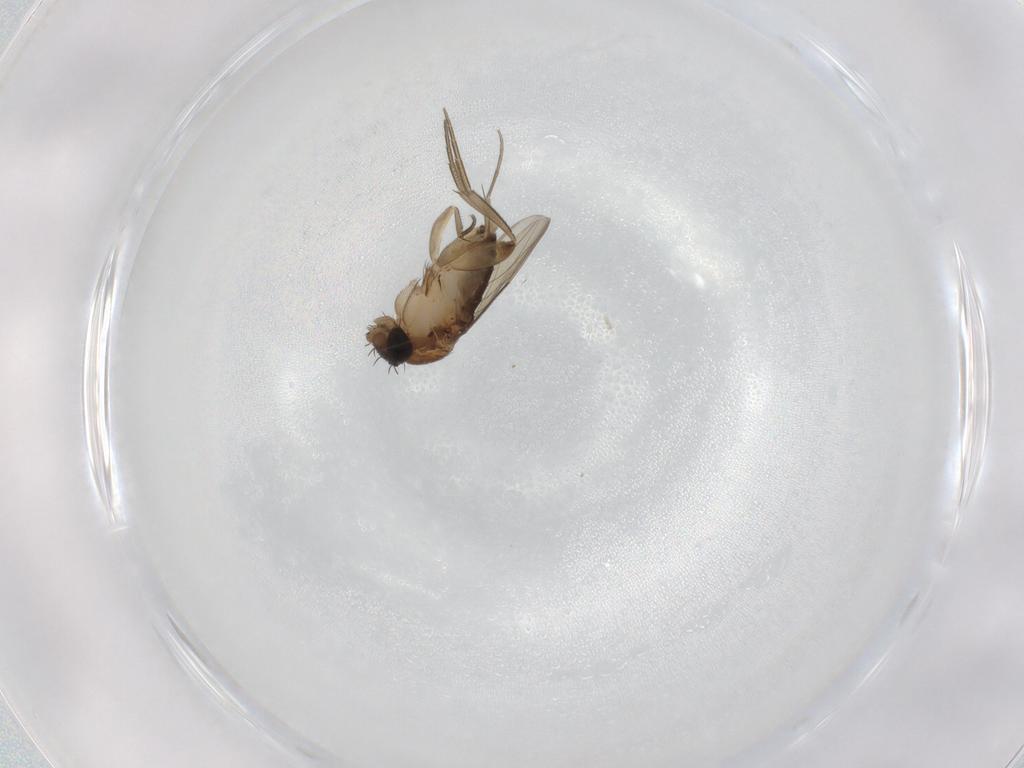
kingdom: Animalia
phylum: Arthropoda
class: Insecta
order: Diptera
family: Phoridae
